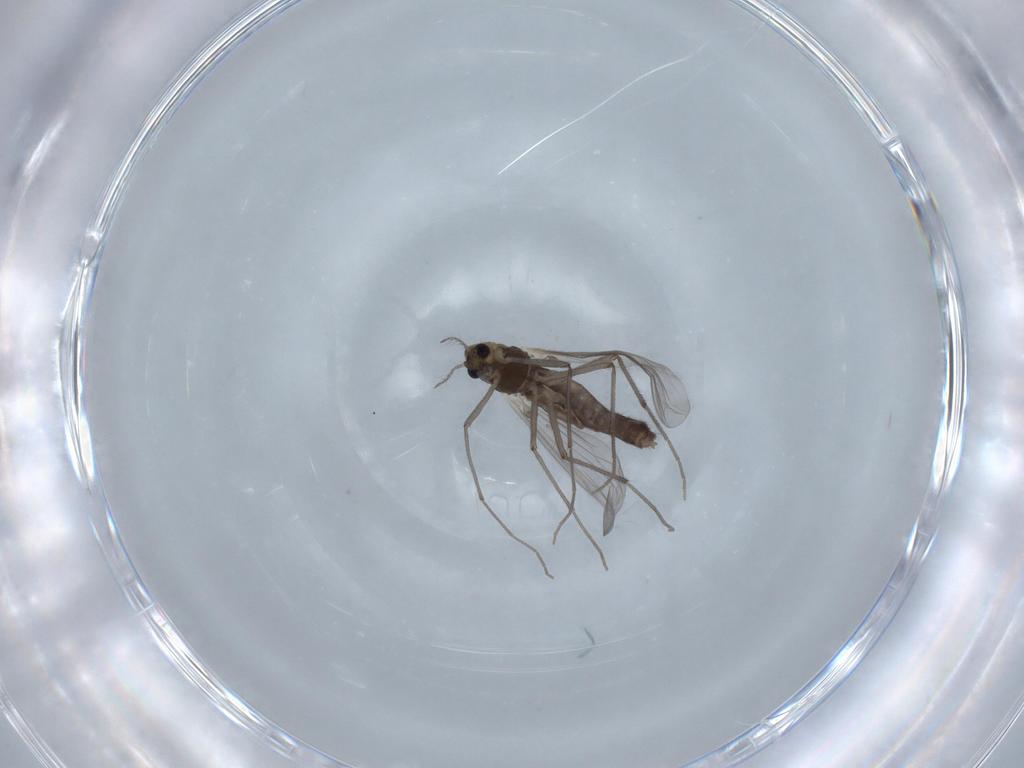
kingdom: Animalia
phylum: Arthropoda
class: Insecta
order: Diptera
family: Chironomidae
